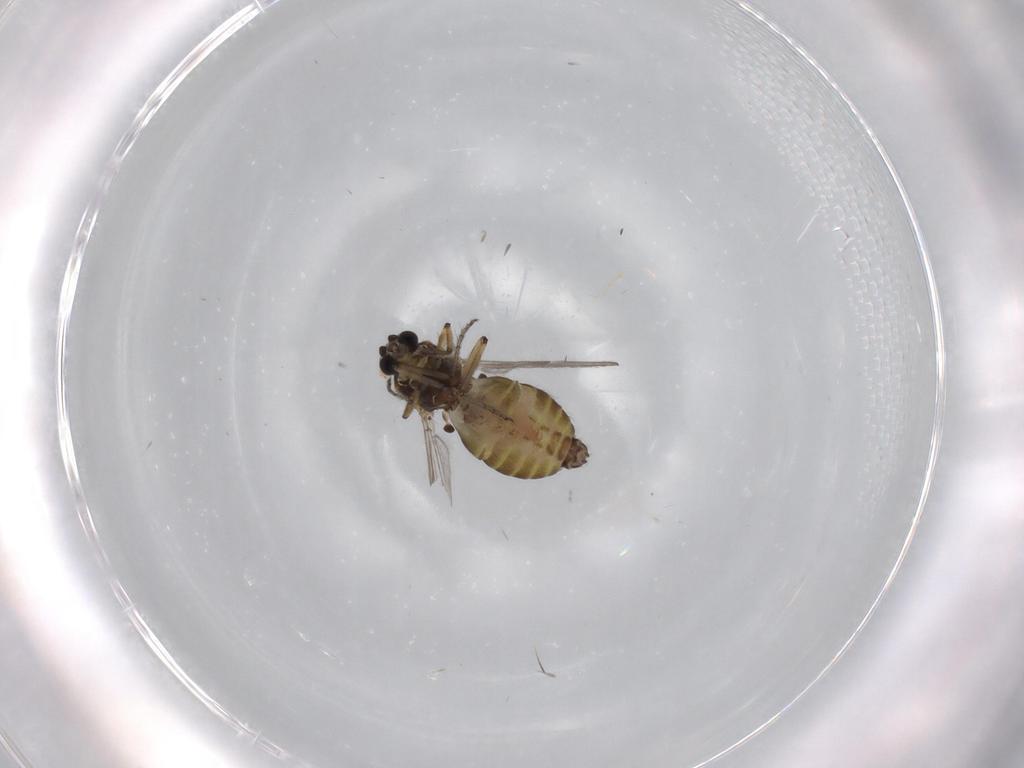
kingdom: Animalia
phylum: Arthropoda
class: Insecta
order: Diptera
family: Ceratopogonidae
